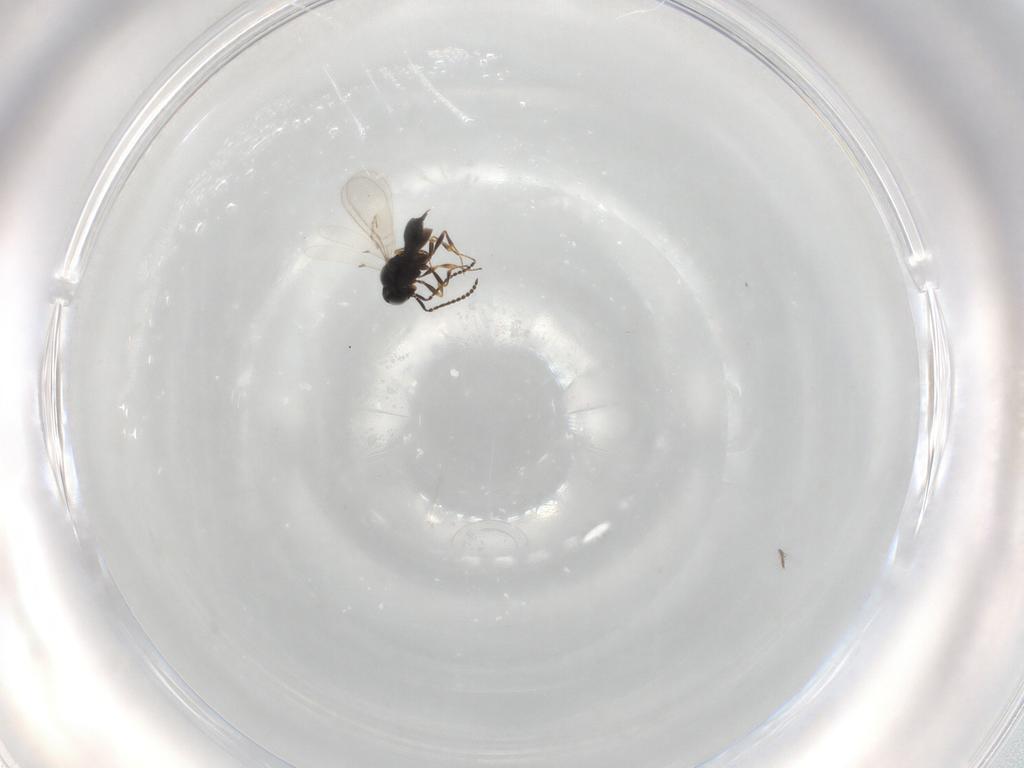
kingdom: Animalia
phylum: Arthropoda
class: Insecta
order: Hymenoptera
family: Scelionidae
